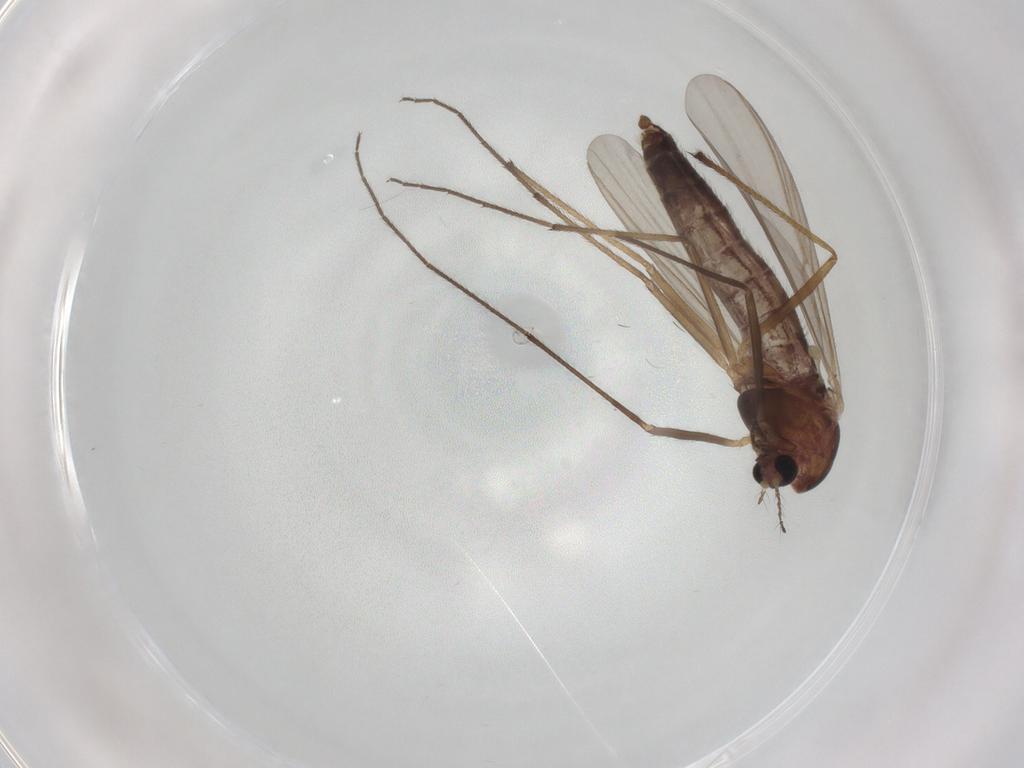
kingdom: Animalia
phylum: Arthropoda
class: Insecta
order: Diptera
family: Chironomidae
